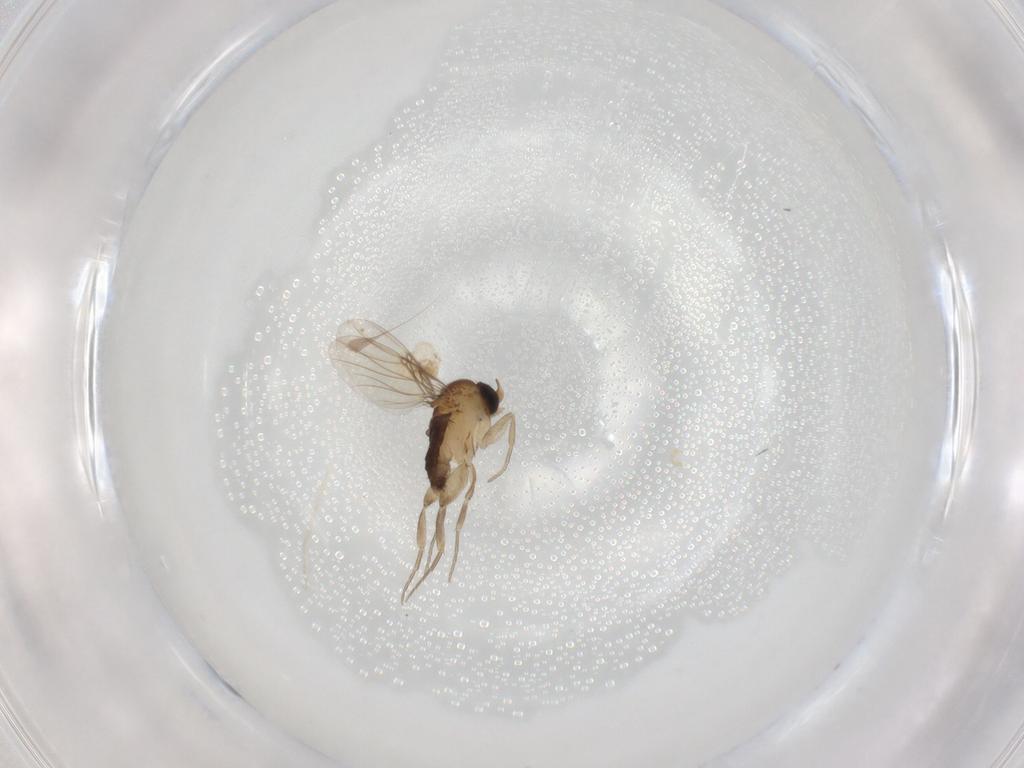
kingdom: Animalia
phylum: Arthropoda
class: Insecta
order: Diptera
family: Phoridae
